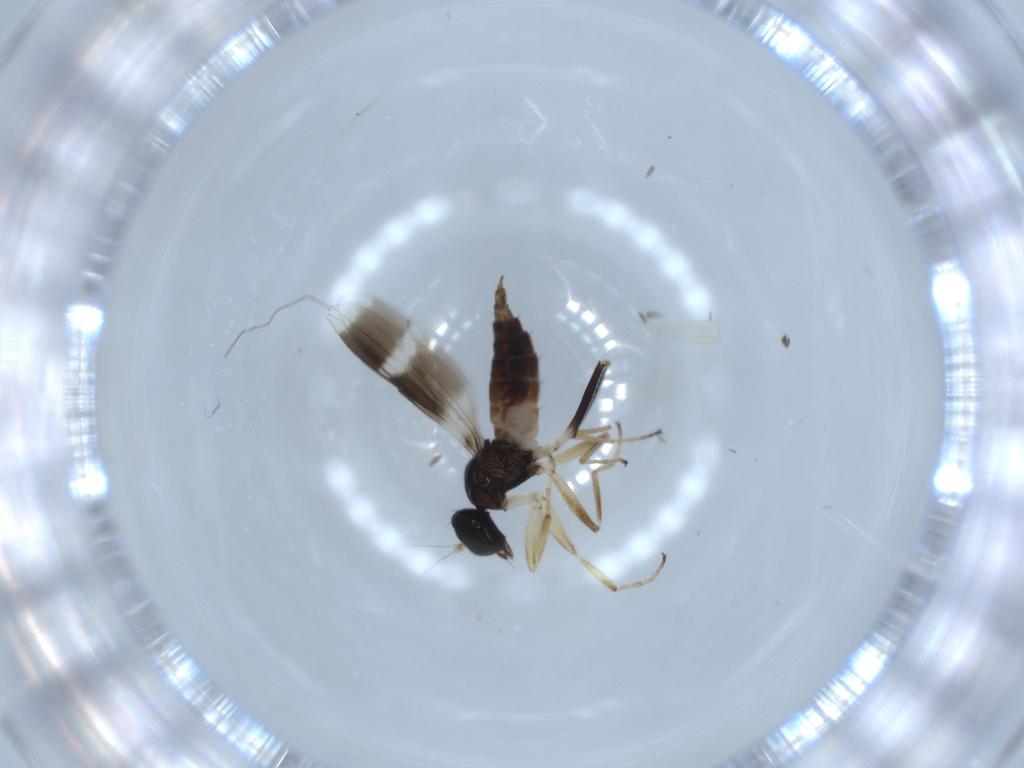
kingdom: Animalia
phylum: Arthropoda
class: Insecta
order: Diptera
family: Hybotidae
